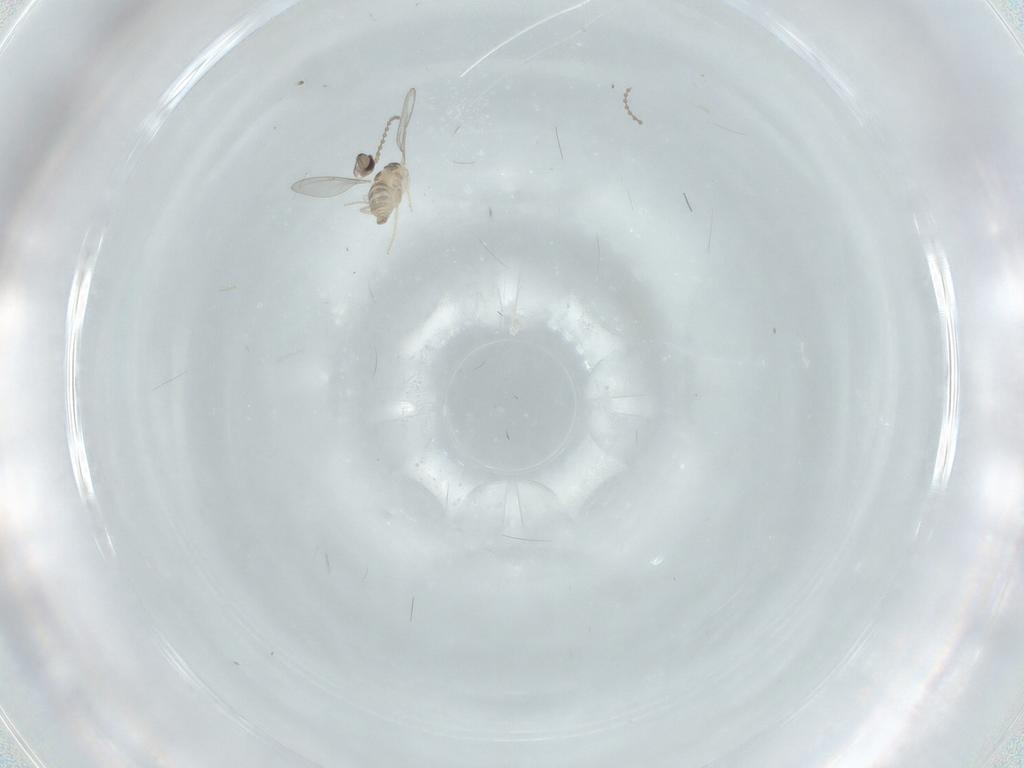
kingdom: Animalia
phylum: Arthropoda
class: Insecta
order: Diptera
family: Cecidomyiidae
